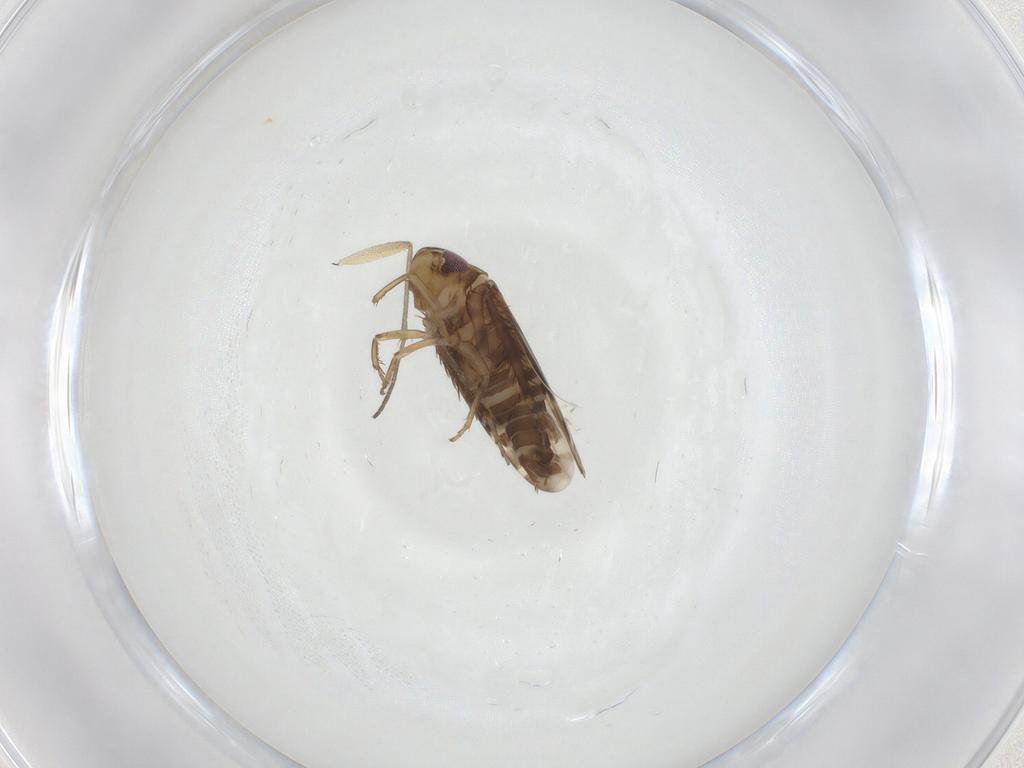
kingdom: Animalia
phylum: Arthropoda
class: Insecta
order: Hemiptera
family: Cicadellidae
